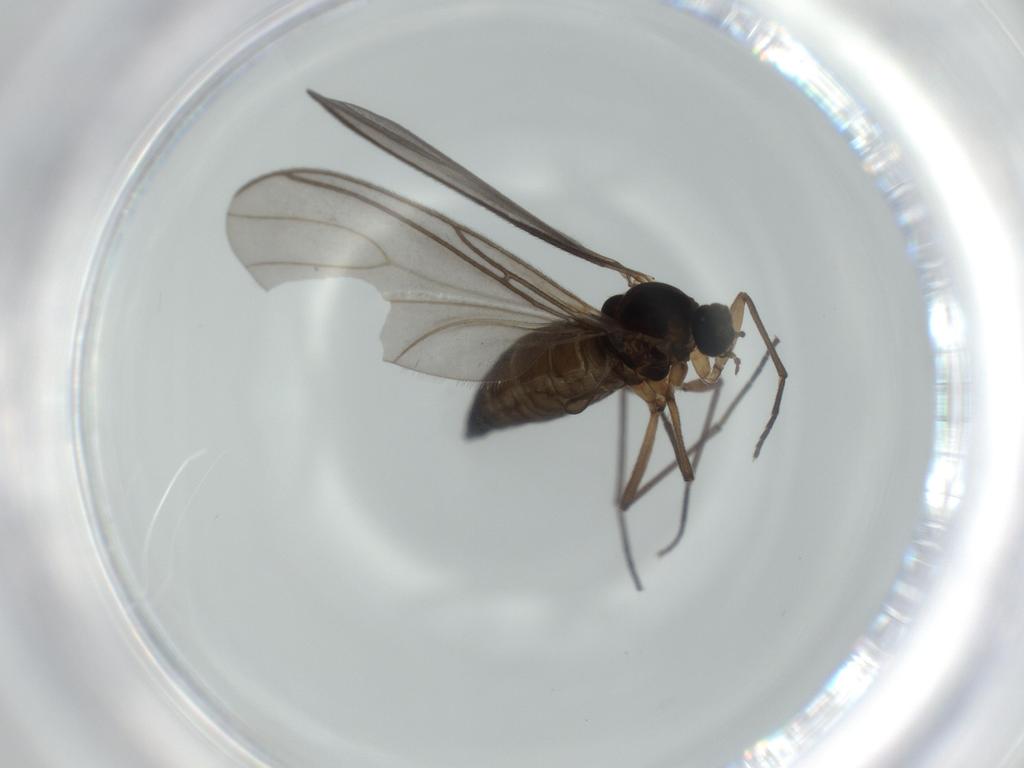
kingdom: Animalia
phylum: Arthropoda
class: Insecta
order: Diptera
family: Sciaridae
